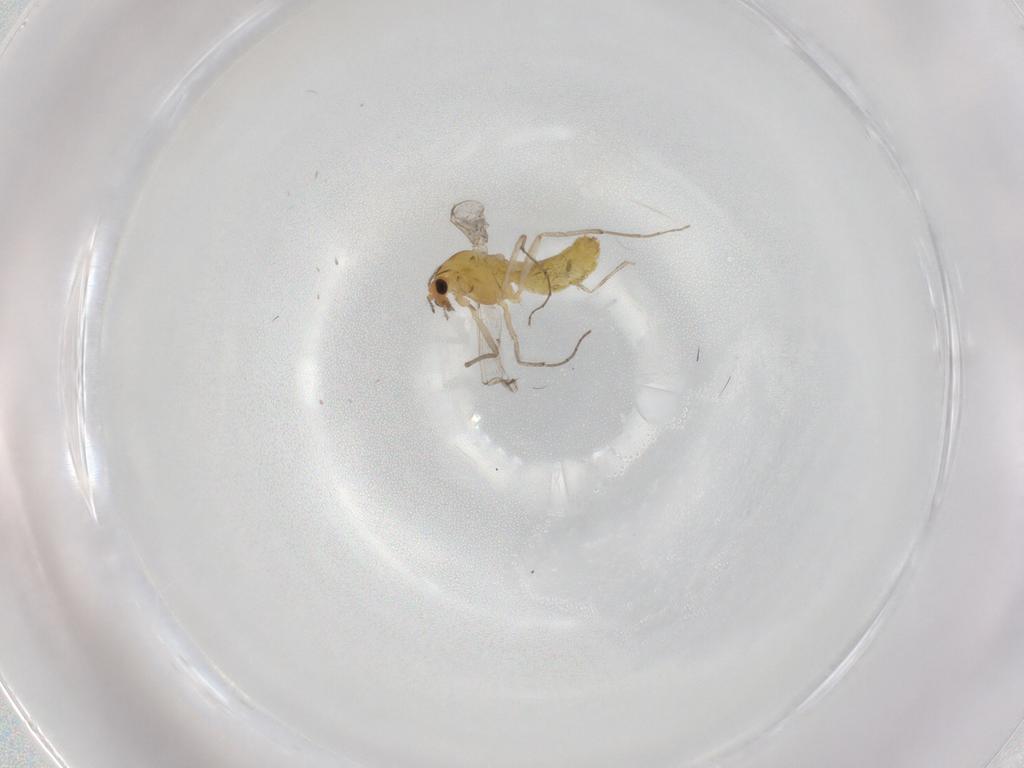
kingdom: Animalia
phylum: Arthropoda
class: Insecta
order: Diptera
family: Chironomidae
